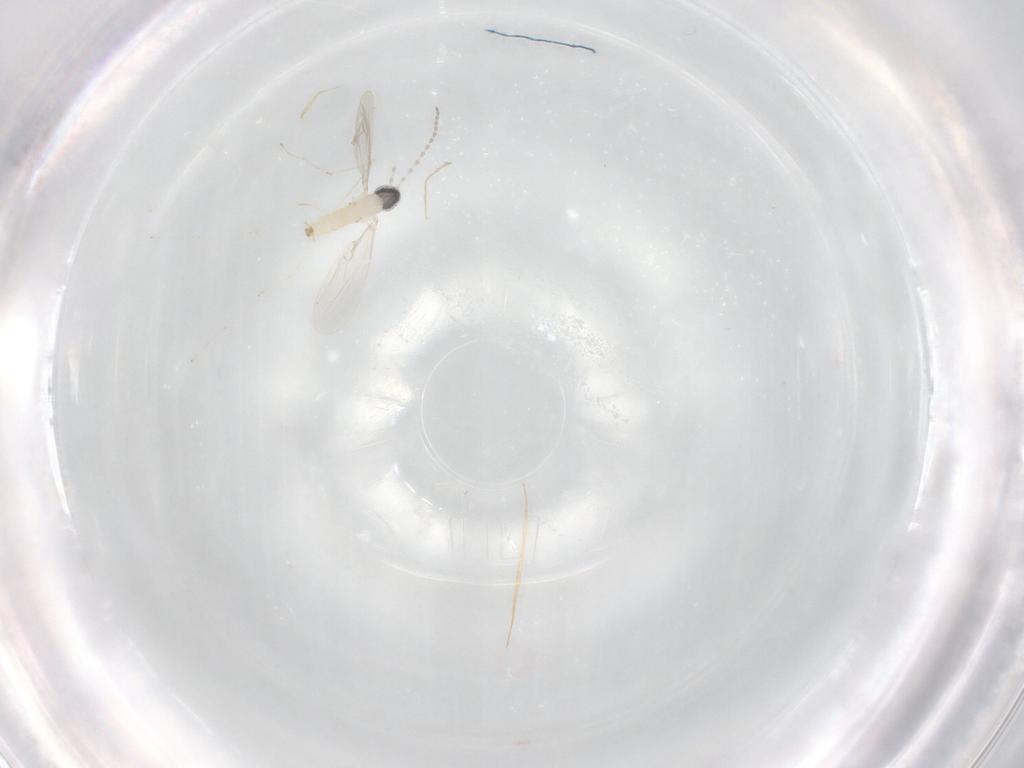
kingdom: Animalia
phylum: Arthropoda
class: Insecta
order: Diptera
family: Cecidomyiidae
